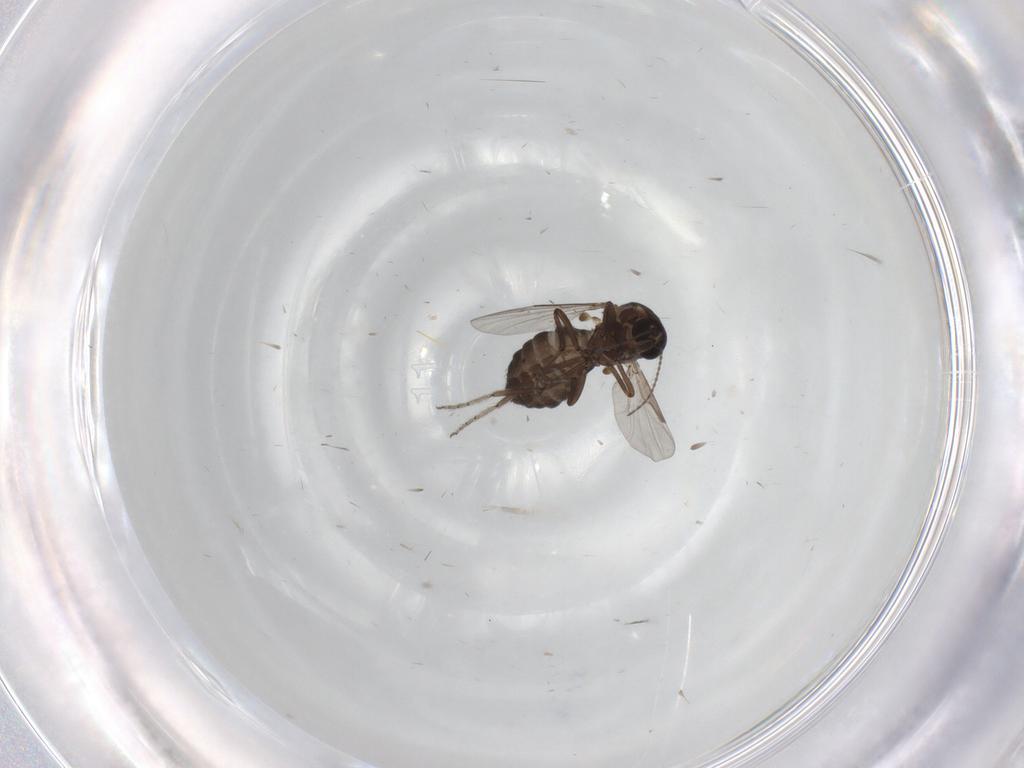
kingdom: Animalia
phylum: Arthropoda
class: Insecta
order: Diptera
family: Ceratopogonidae
